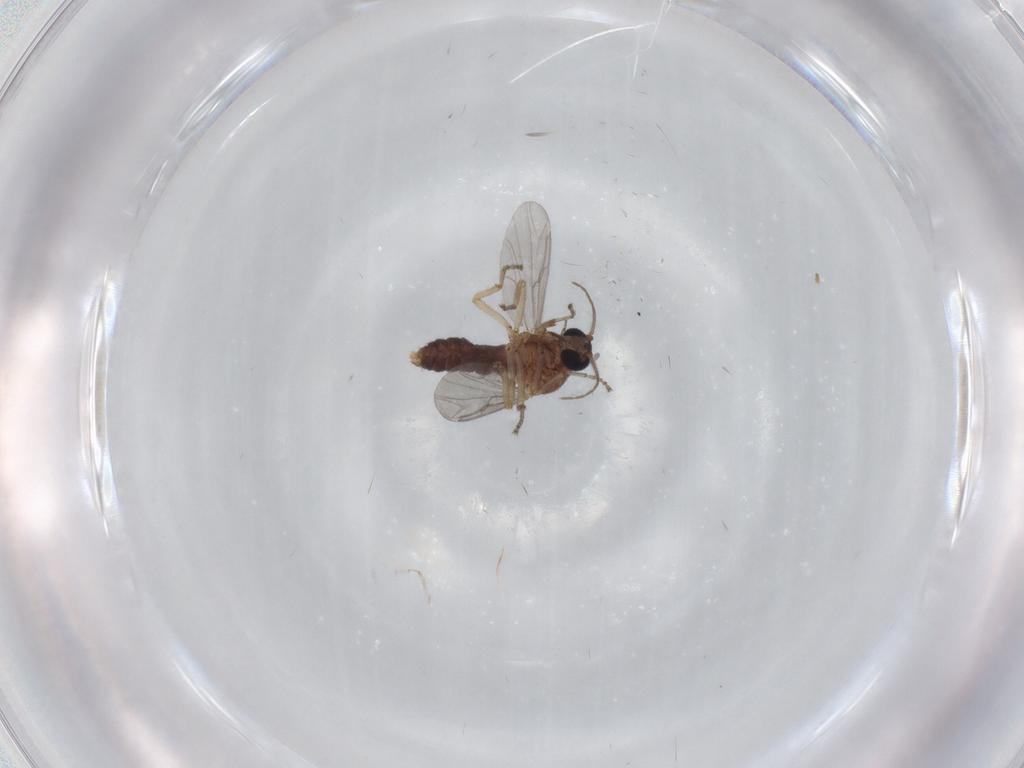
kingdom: Animalia
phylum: Arthropoda
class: Insecta
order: Diptera
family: Ceratopogonidae
